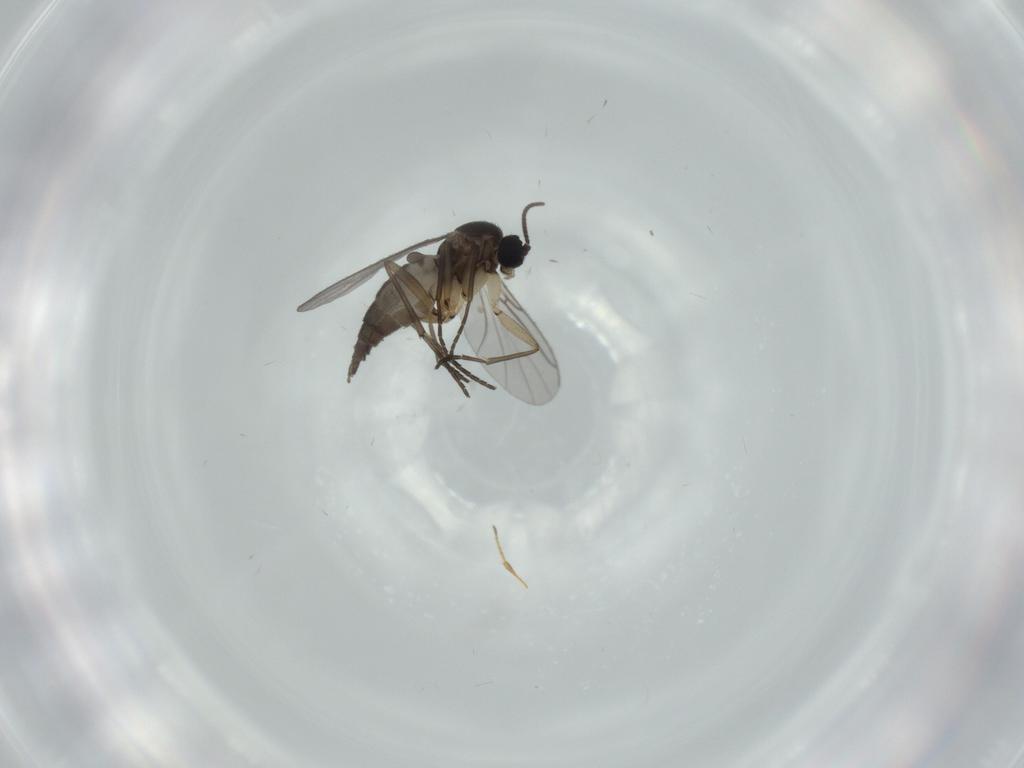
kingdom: Animalia
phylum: Arthropoda
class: Insecta
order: Diptera
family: Sciaridae
